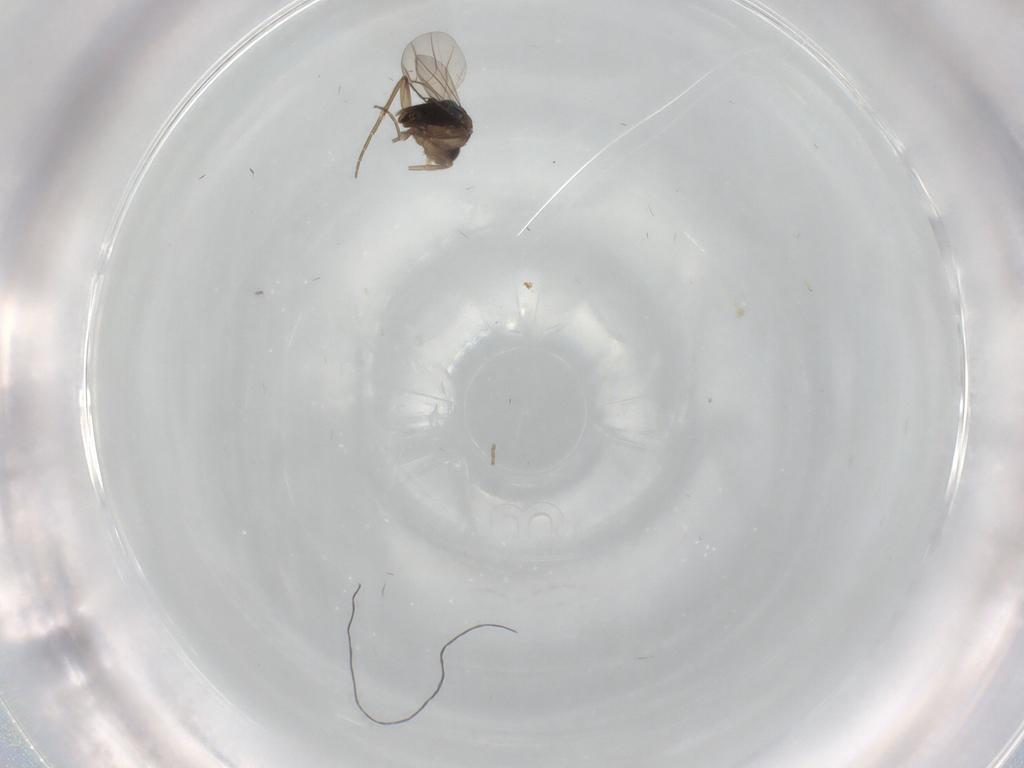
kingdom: Animalia
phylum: Arthropoda
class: Insecta
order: Diptera
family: Phoridae
